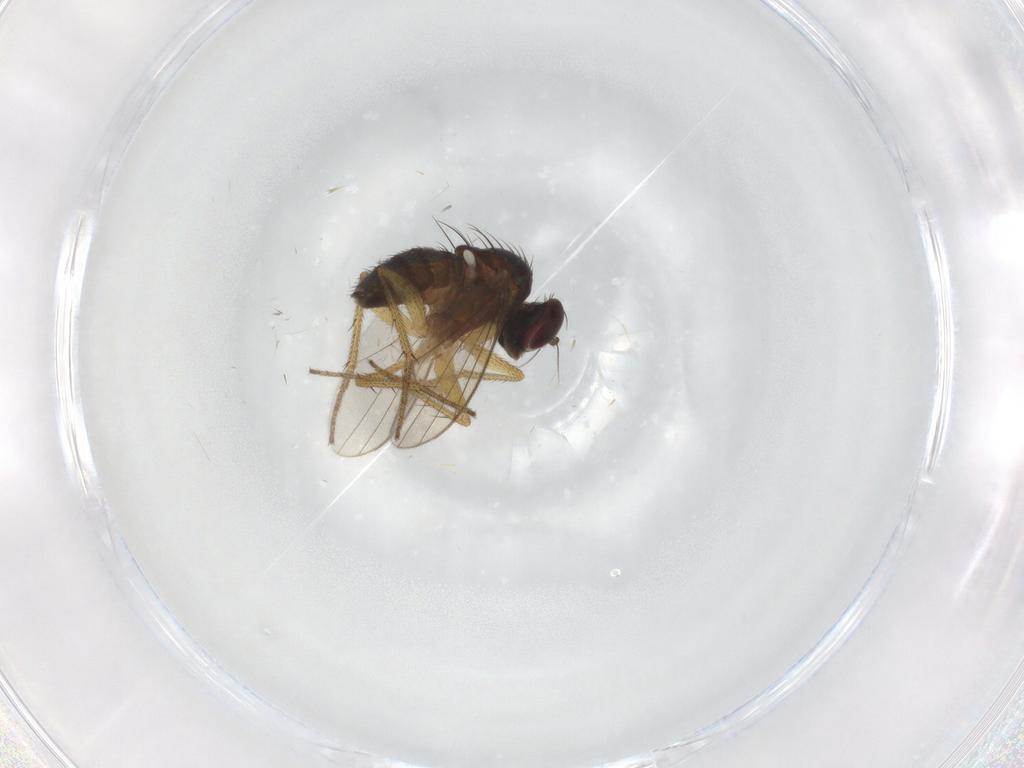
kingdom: Animalia
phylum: Arthropoda
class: Insecta
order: Diptera
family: Dolichopodidae
